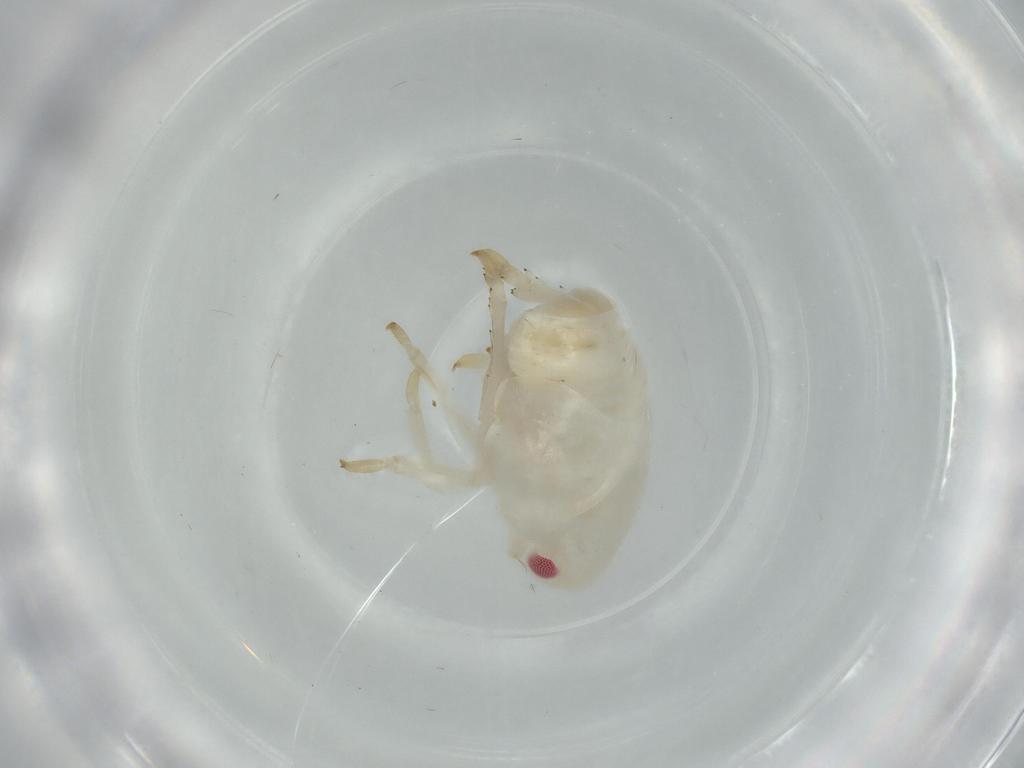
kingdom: Animalia
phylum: Arthropoda
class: Insecta
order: Hemiptera
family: Flatidae
